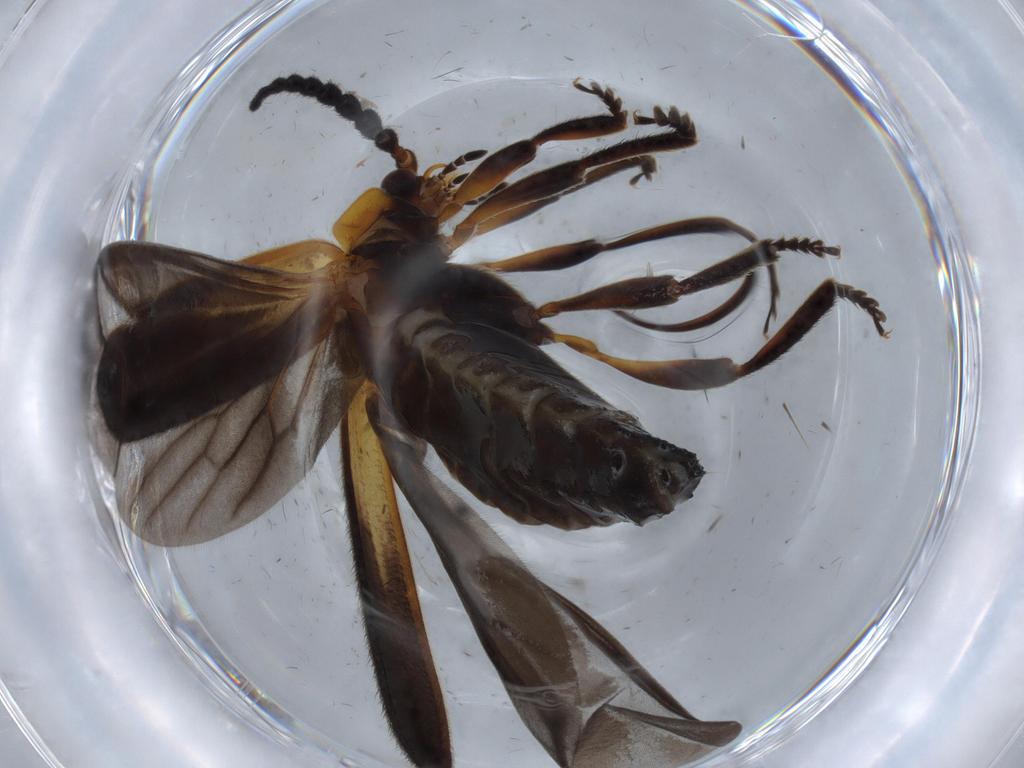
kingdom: Animalia
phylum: Arthropoda
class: Insecta
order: Coleoptera
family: Lycidae
